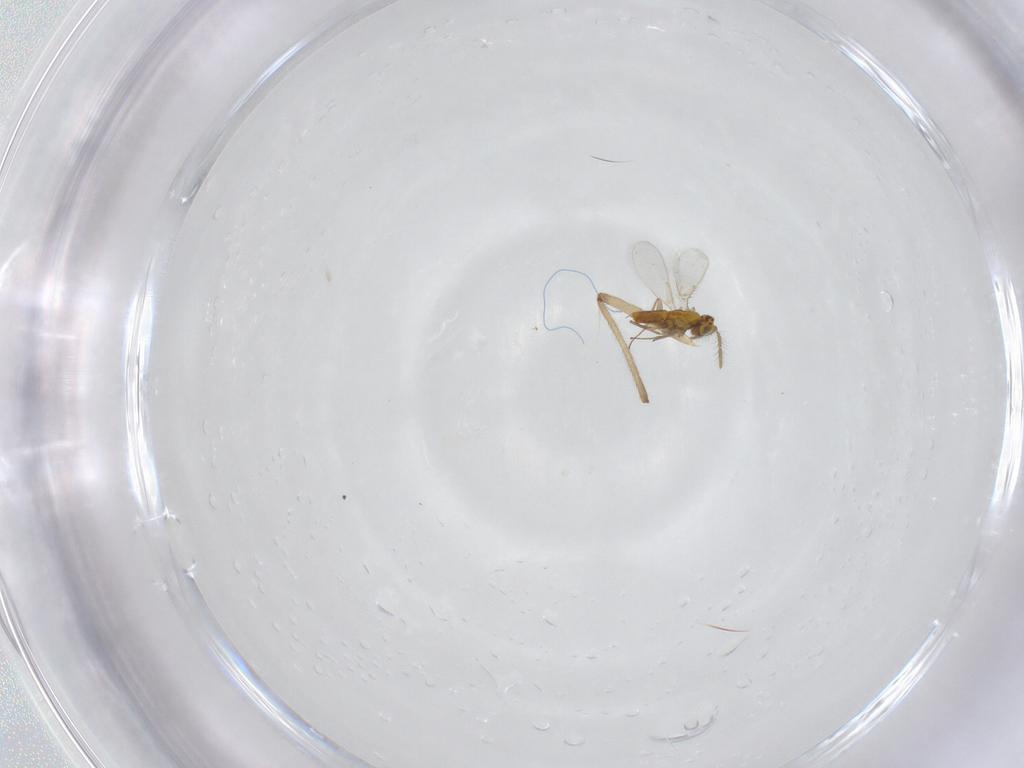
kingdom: Animalia
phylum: Arthropoda
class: Insecta
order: Hymenoptera
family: Aphelinidae
